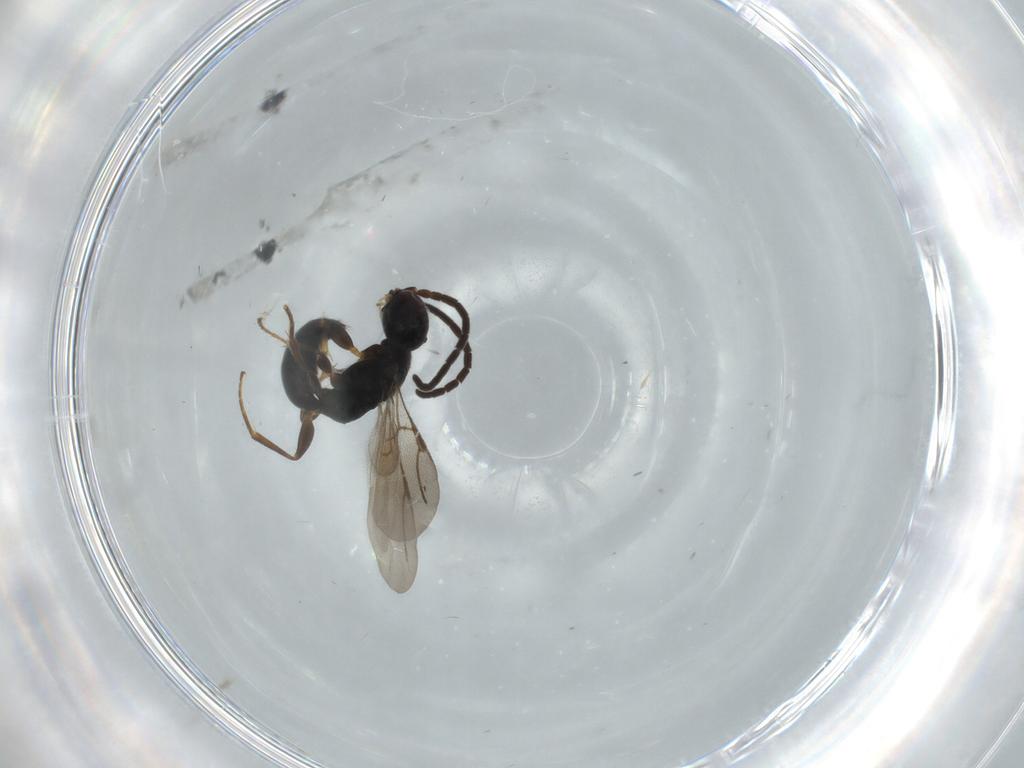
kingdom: Animalia
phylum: Arthropoda
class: Insecta
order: Hymenoptera
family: Bethylidae
